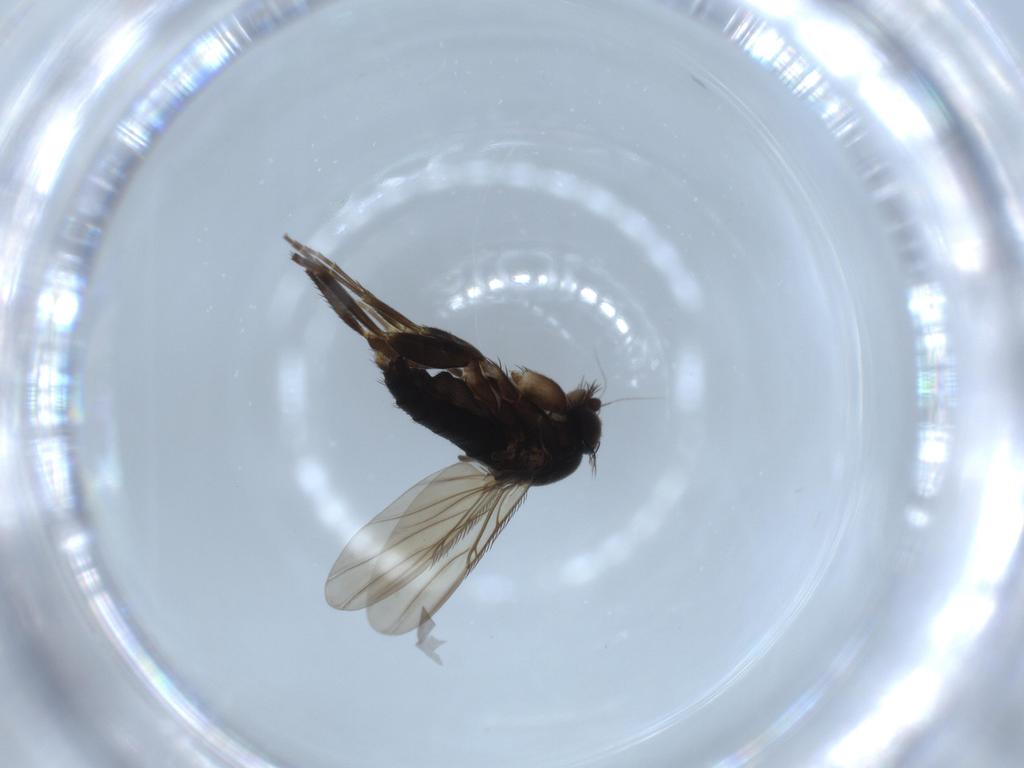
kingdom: Animalia
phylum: Arthropoda
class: Insecta
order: Diptera
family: Phoridae
